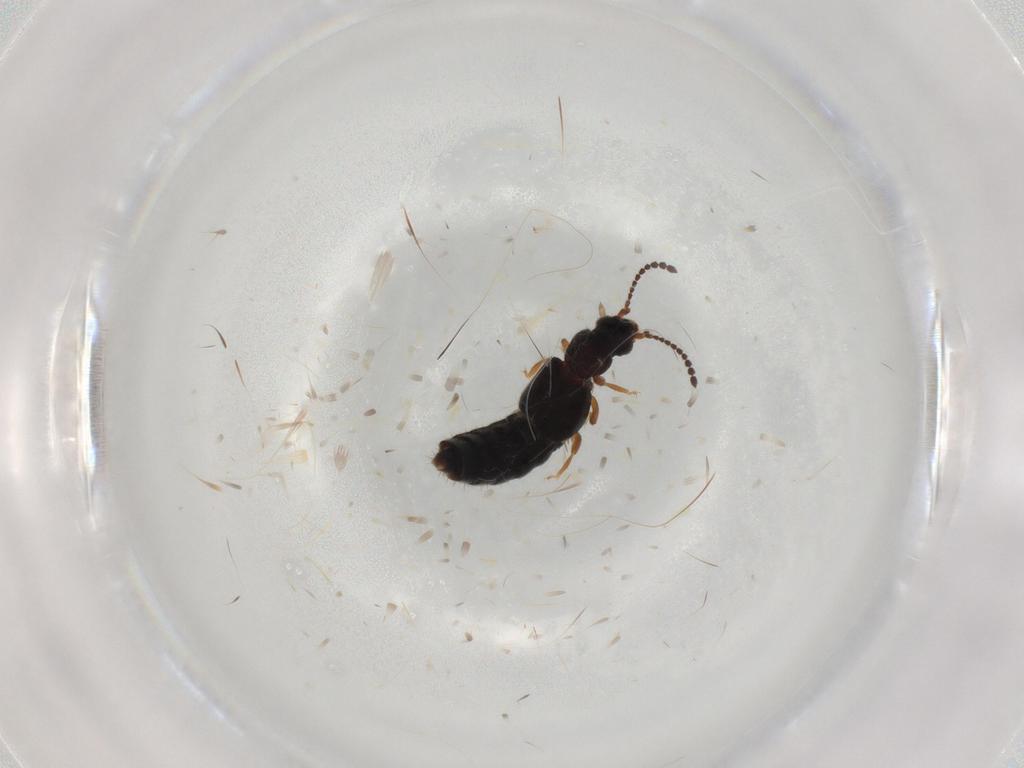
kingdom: Animalia
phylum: Arthropoda
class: Insecta
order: Coleoptera
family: Staphylinidae
